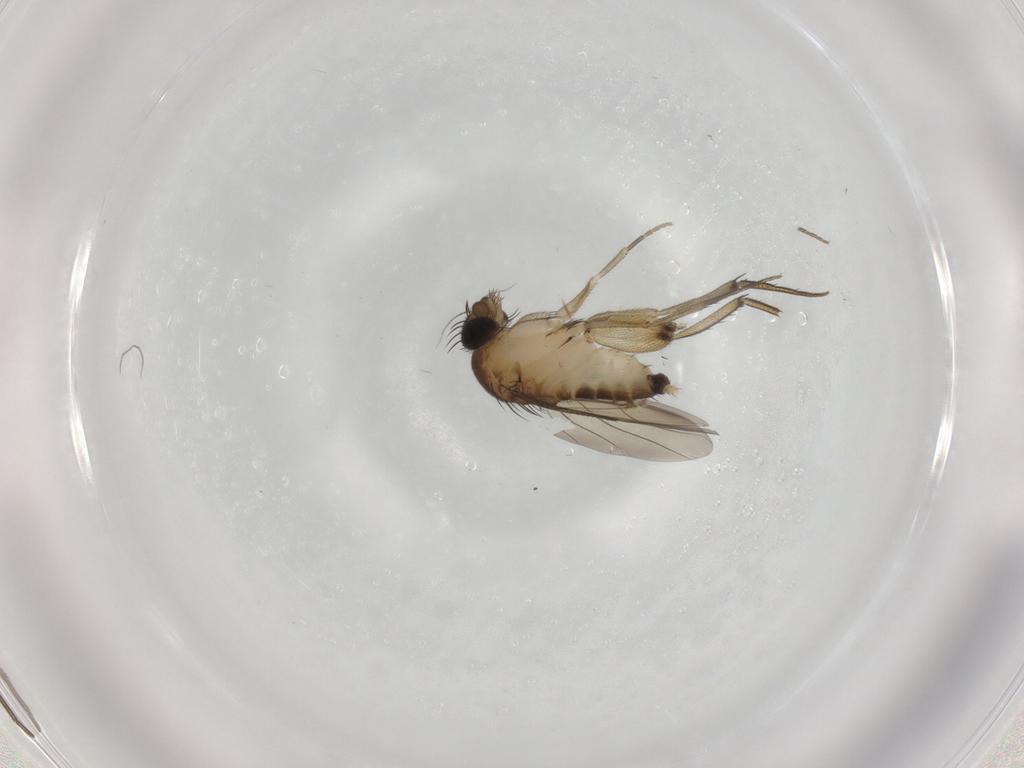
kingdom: Animalia
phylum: Arthropoda
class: Insecta
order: Diptera
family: Phoridae
